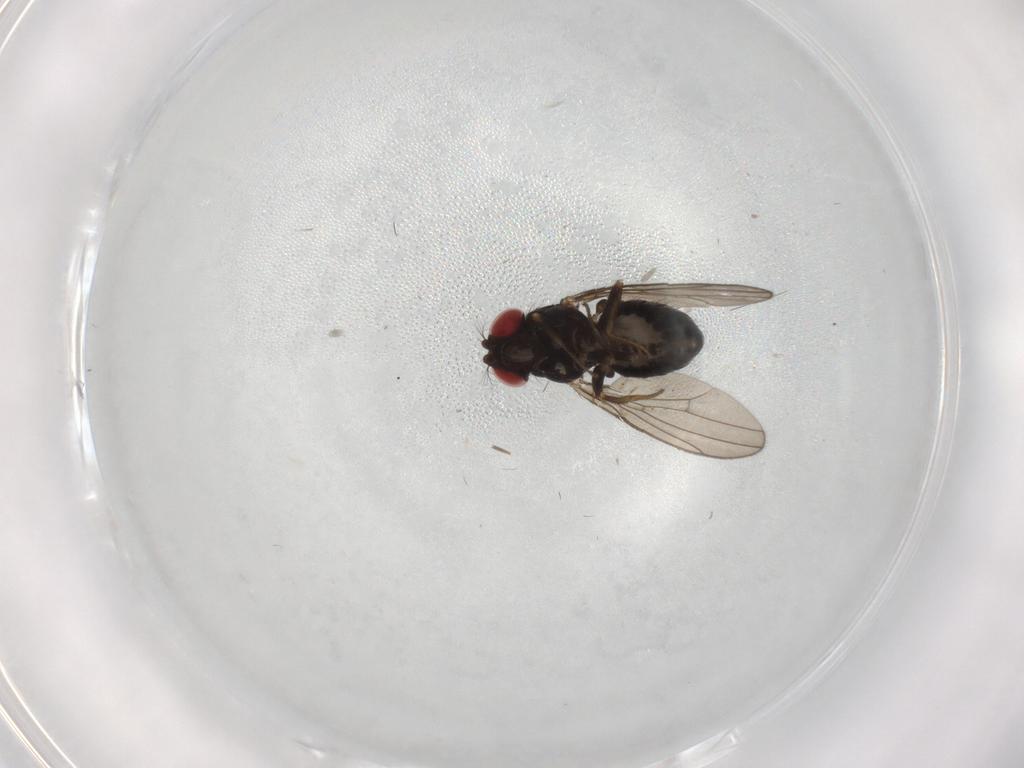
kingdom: Animalia
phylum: Arthropoda
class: Insecta
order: Diptera
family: Drosophilidae
